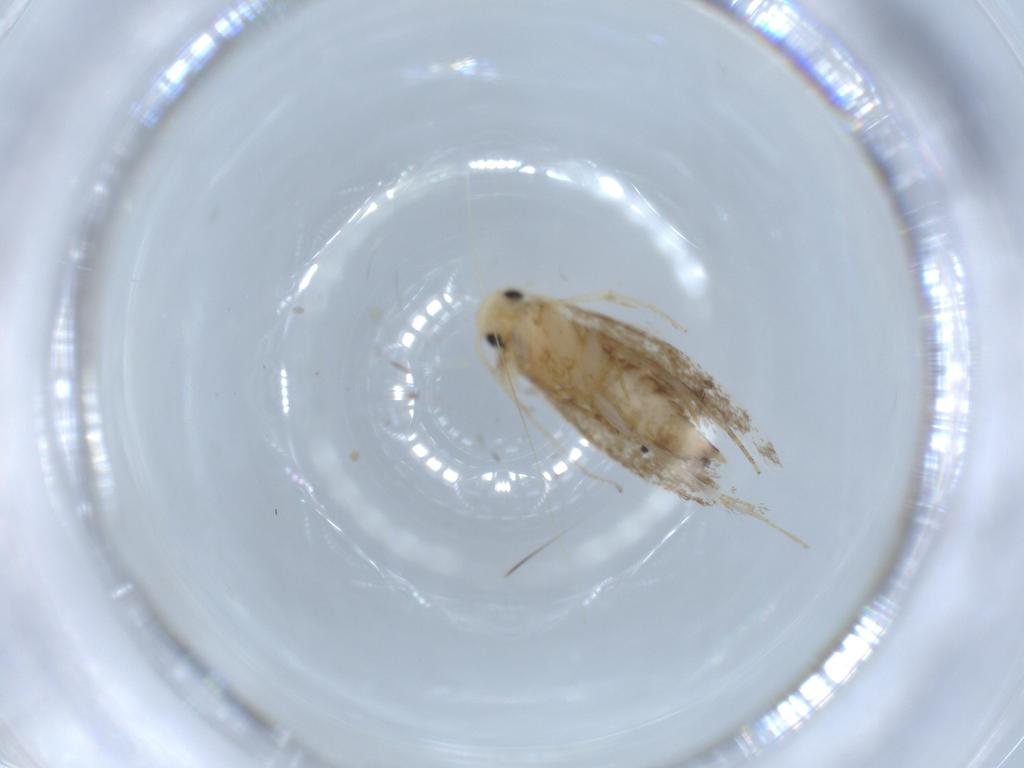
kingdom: Animalia
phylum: Arthropoda
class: Insecta
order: Lepidoptera
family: Tineidae
